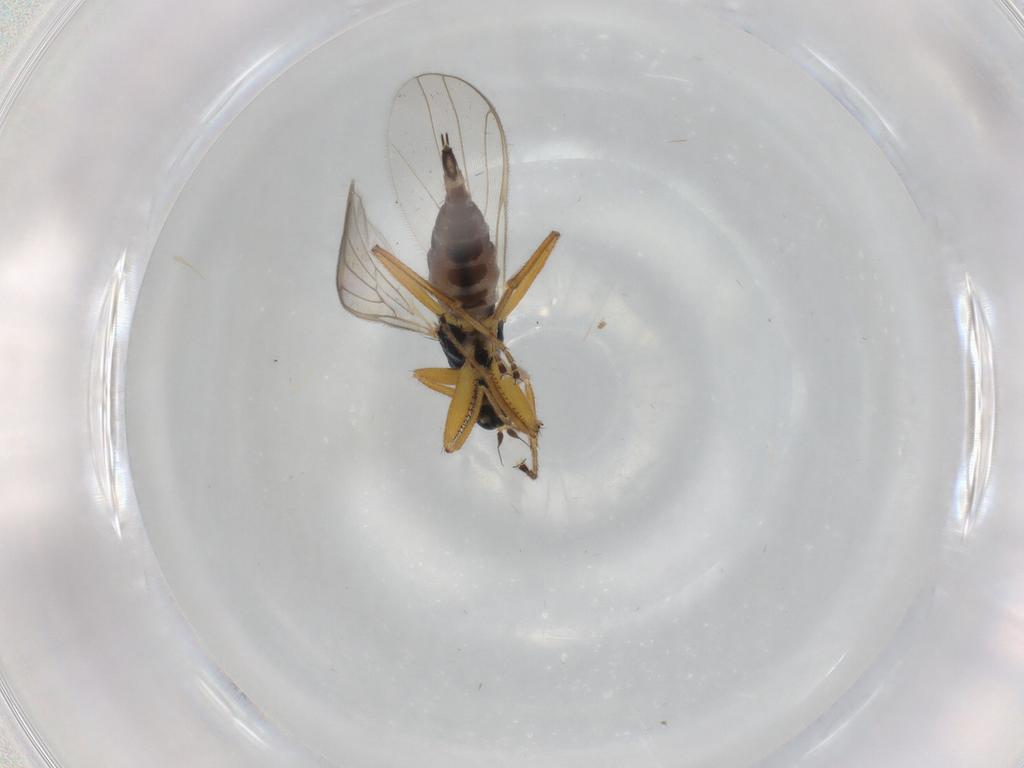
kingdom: Animalia
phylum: Arthropoda
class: Insecta
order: Diptera
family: Hybotidae
